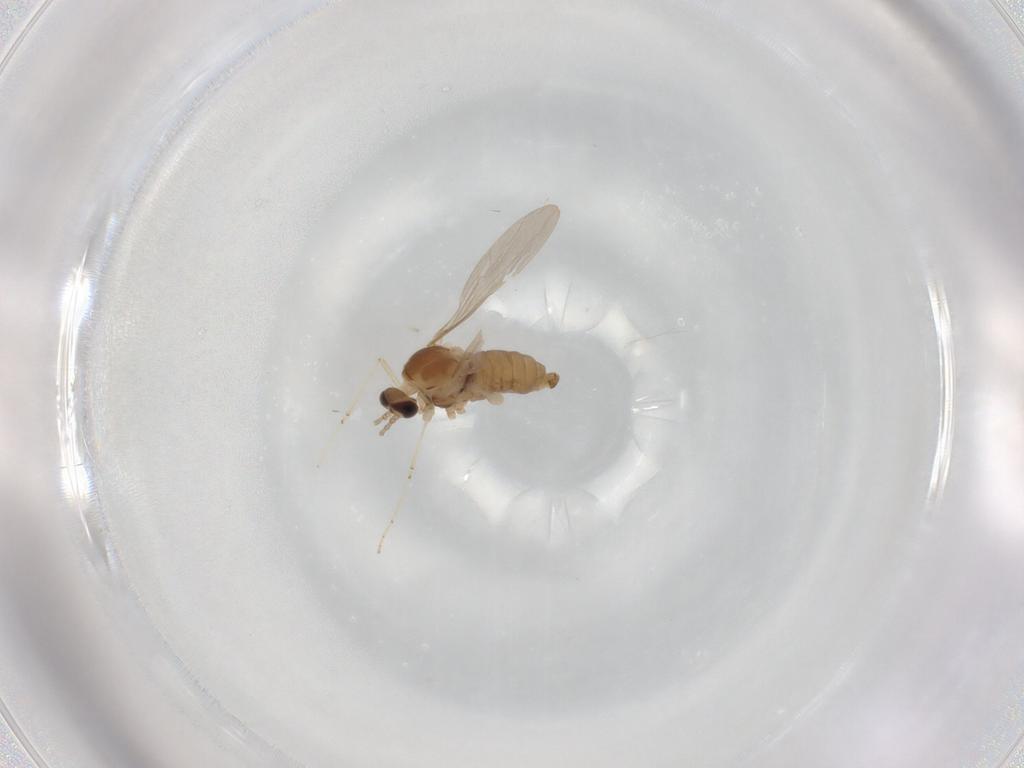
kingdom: Animalia
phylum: Arthropoda
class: Insecta
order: Diptera
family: Cecidomyiidae
